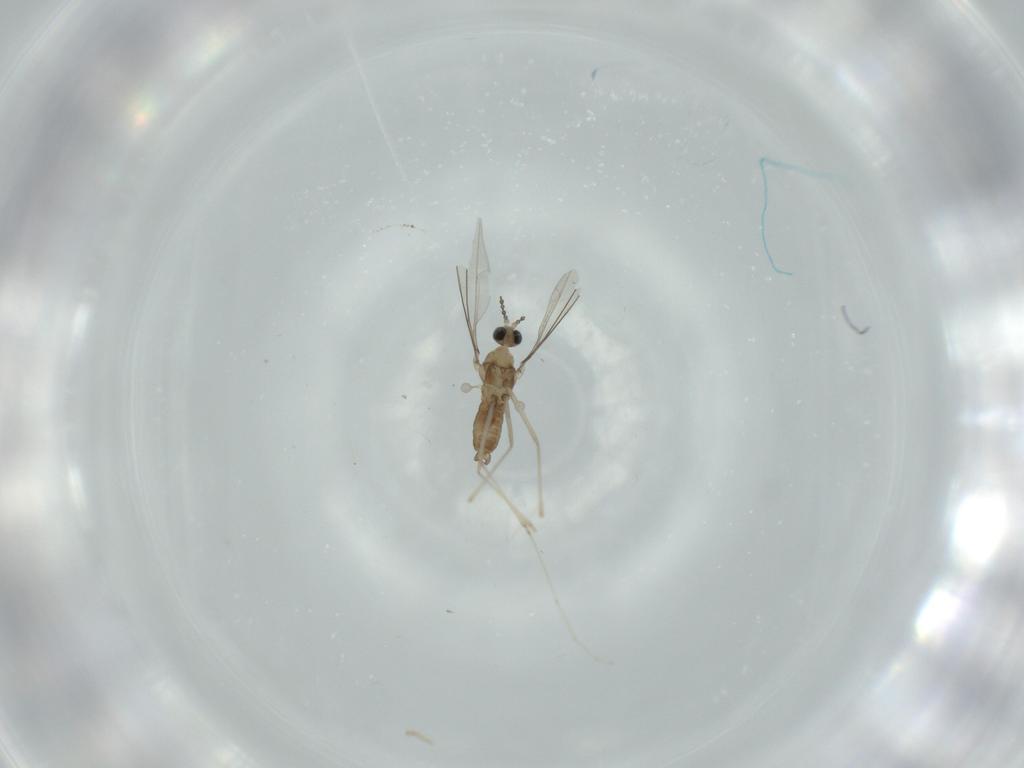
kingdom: Animalia
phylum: Arthropoda
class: Insecta
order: Diptera
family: Cecidomyiidae
